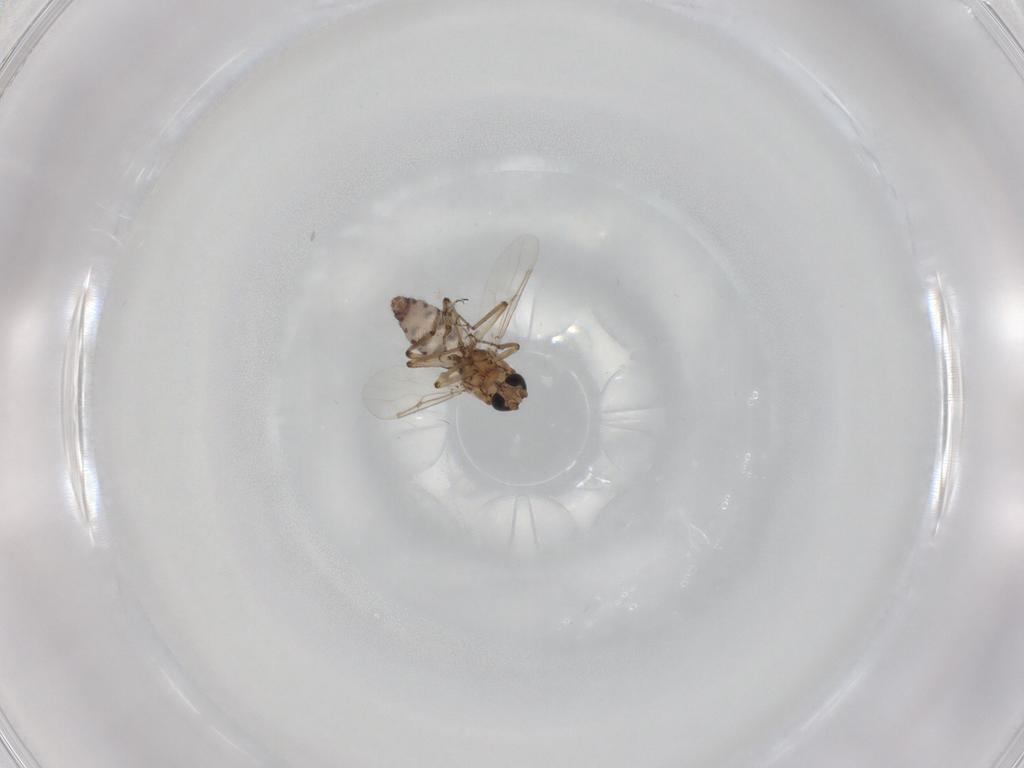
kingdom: Animalia
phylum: Arthropoda
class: Insecta
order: Diptera
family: Ceratopogonidae
